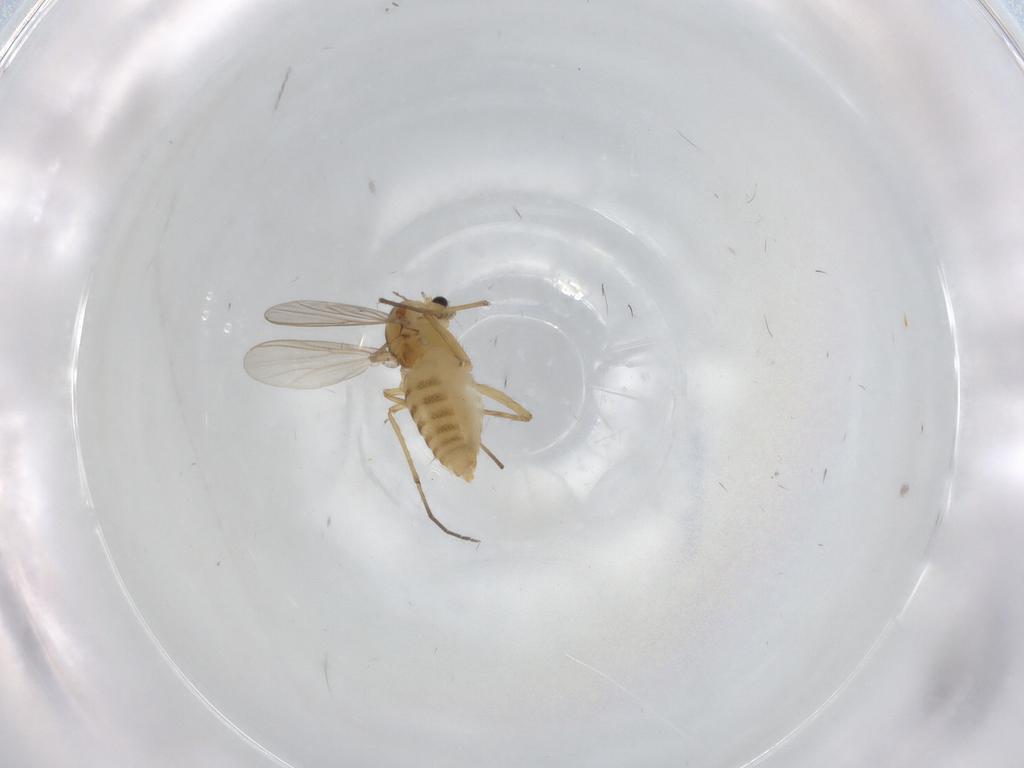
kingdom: Animalia
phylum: Arthropoda
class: Insecta
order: Diptera
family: Chironomidae
